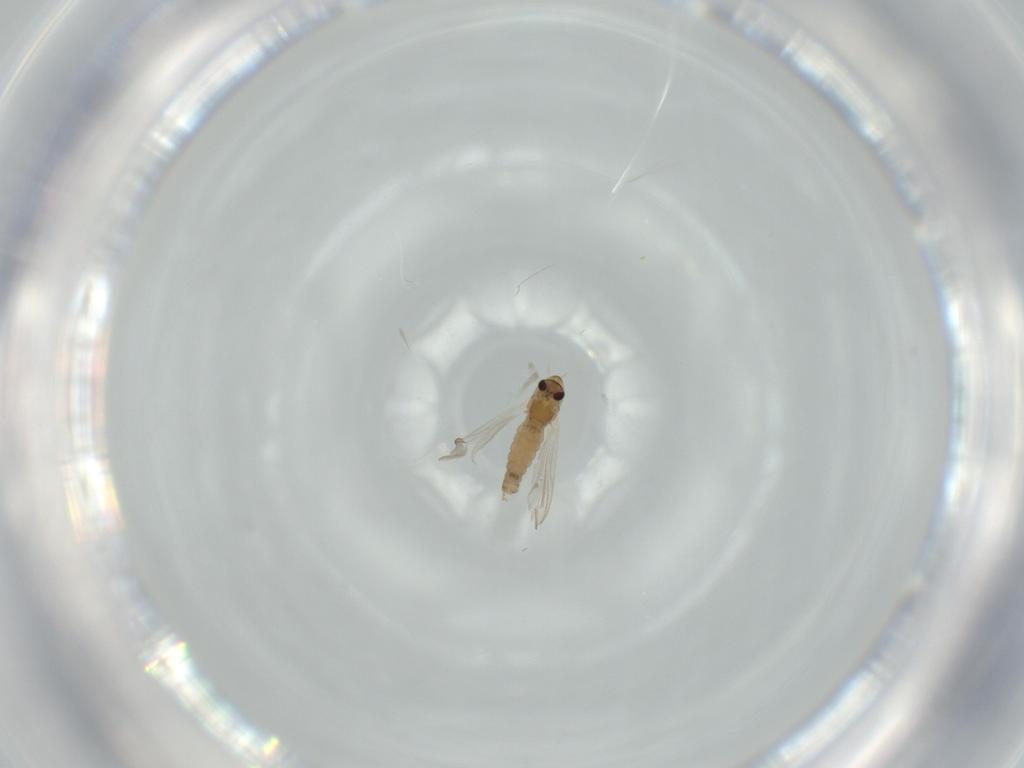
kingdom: Animalia
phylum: Arthropoda
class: Insecta
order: Diptera
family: Chironomidae
